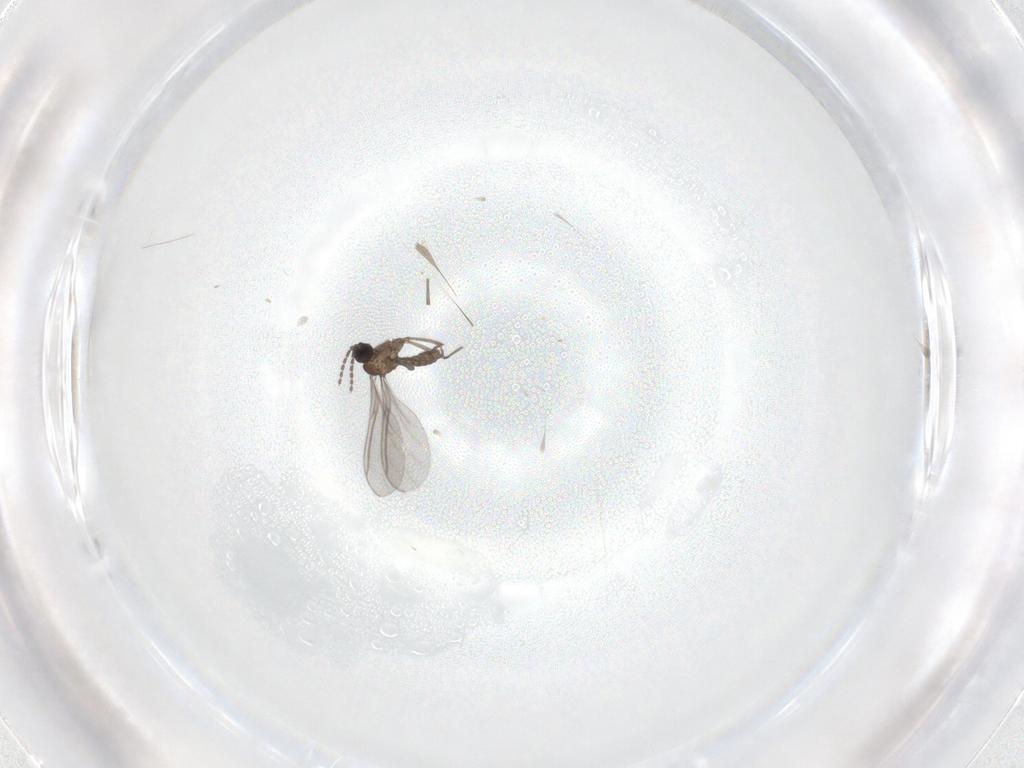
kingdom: Animalia
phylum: Arthropoda
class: Insecta
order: Diptera
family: Sciaridae
